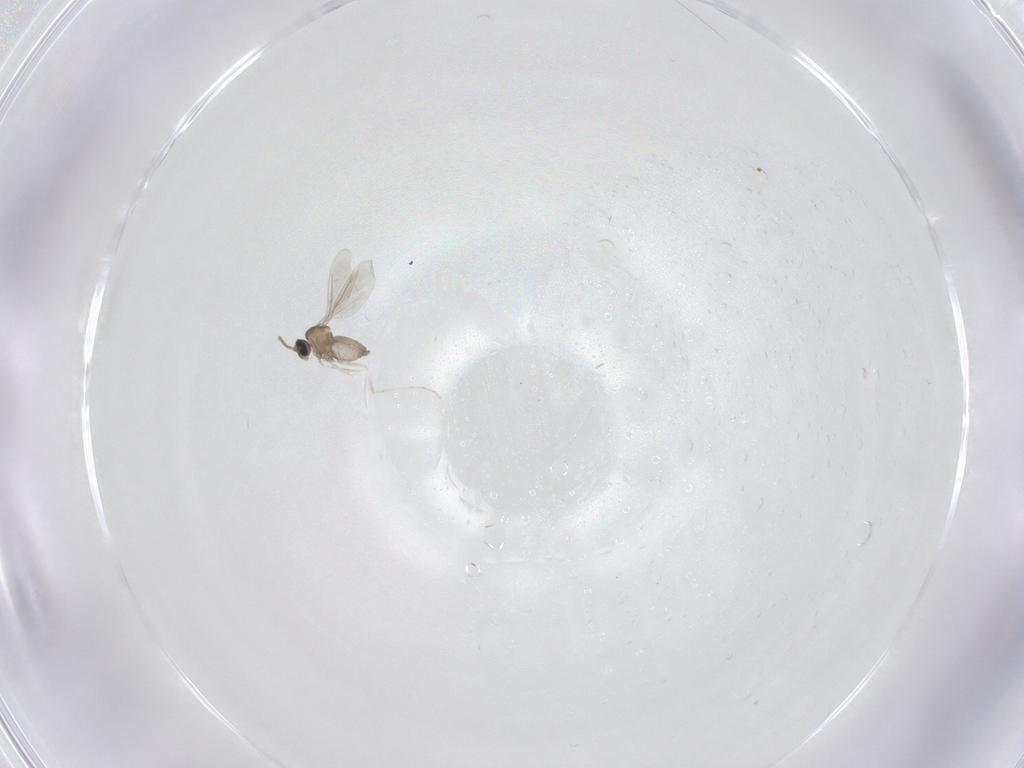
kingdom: Animalia
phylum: Arthropoda
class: Insecta
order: Diptera
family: Cecidomyiidae
